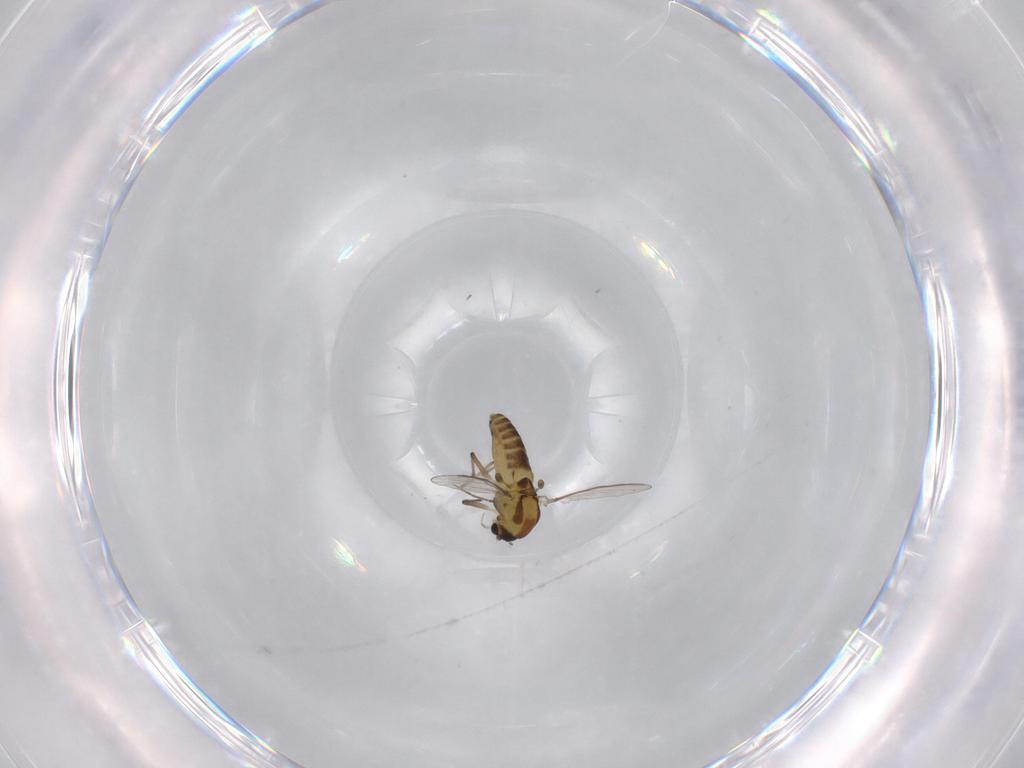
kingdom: Animalia
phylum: Arthropoda
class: Insecta
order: Diptera
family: Chironomidae
